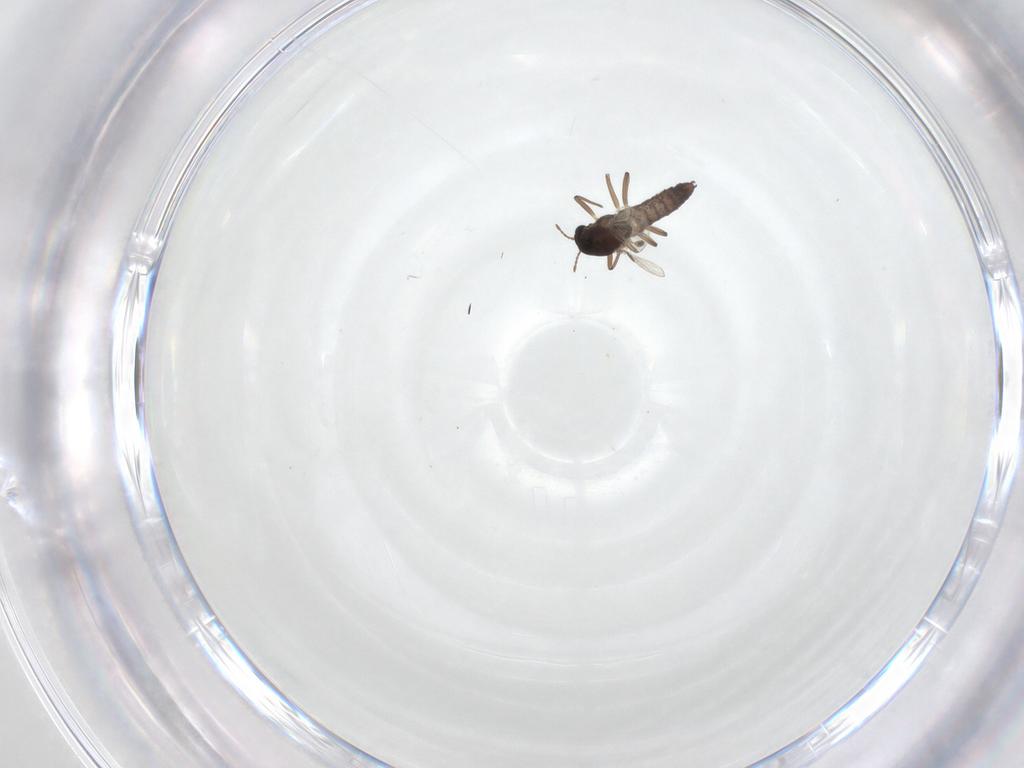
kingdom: Animalia
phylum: Arthropoda
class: Insecta
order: Diptera
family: Chironomidae
